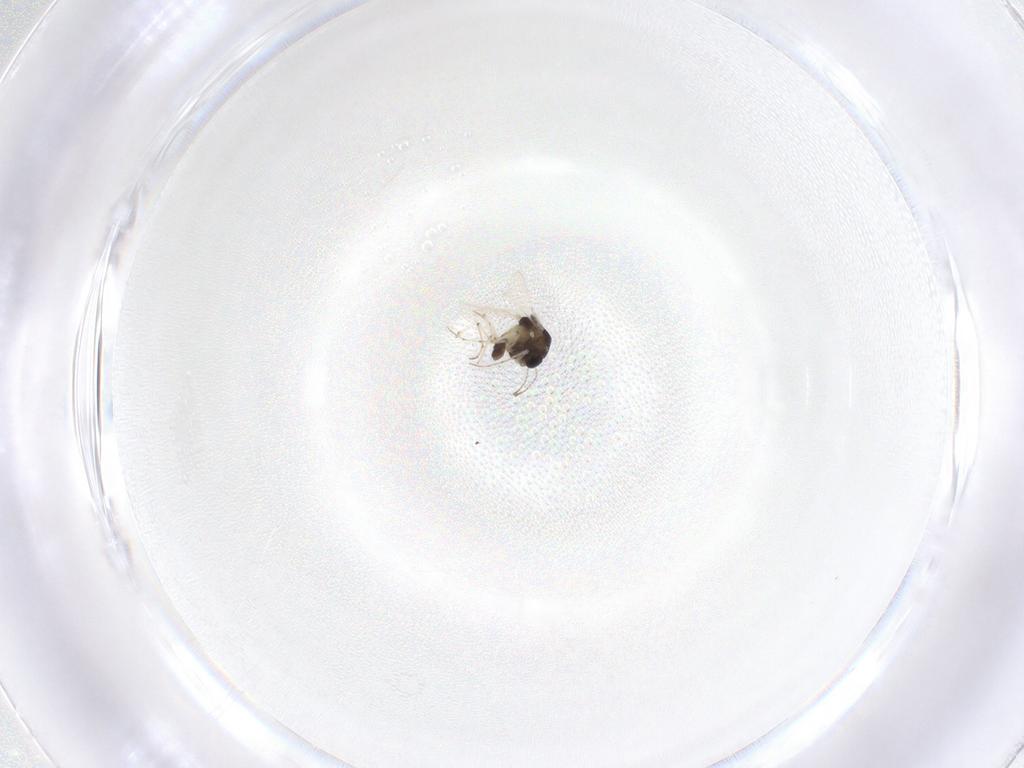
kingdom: Animalia
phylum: Arthropoda
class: Insecta
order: Diptera
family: Chironomidae
